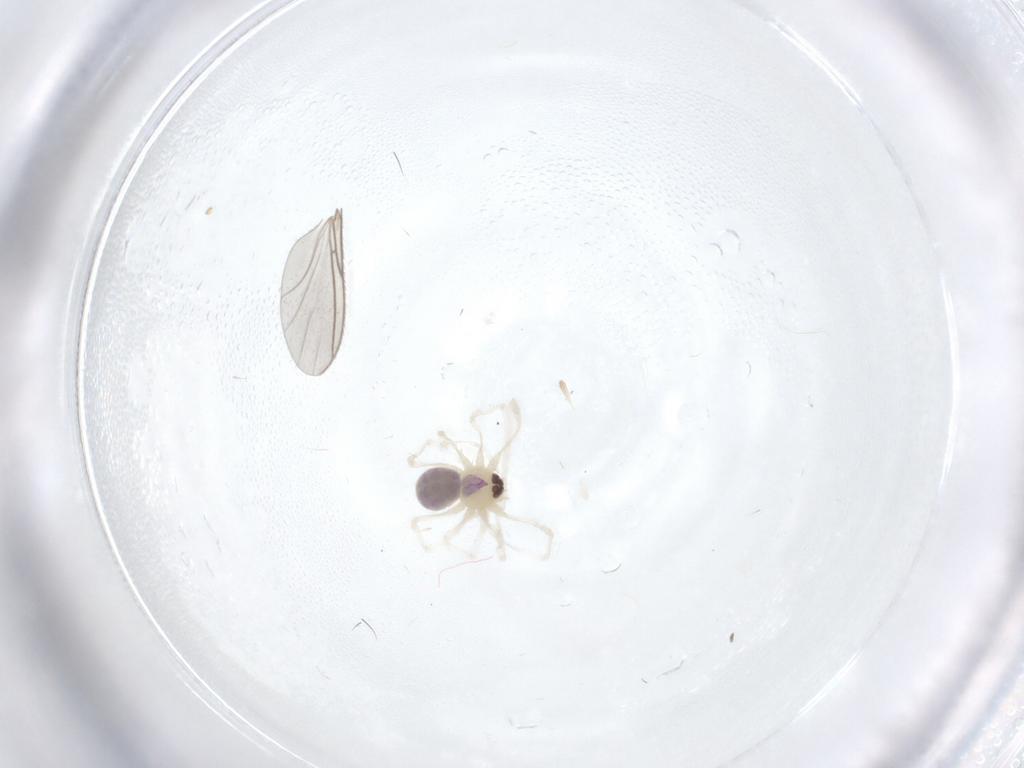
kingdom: Animalia
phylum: Arthropoda
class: Arachnida
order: Araneae
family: Pholcidae
